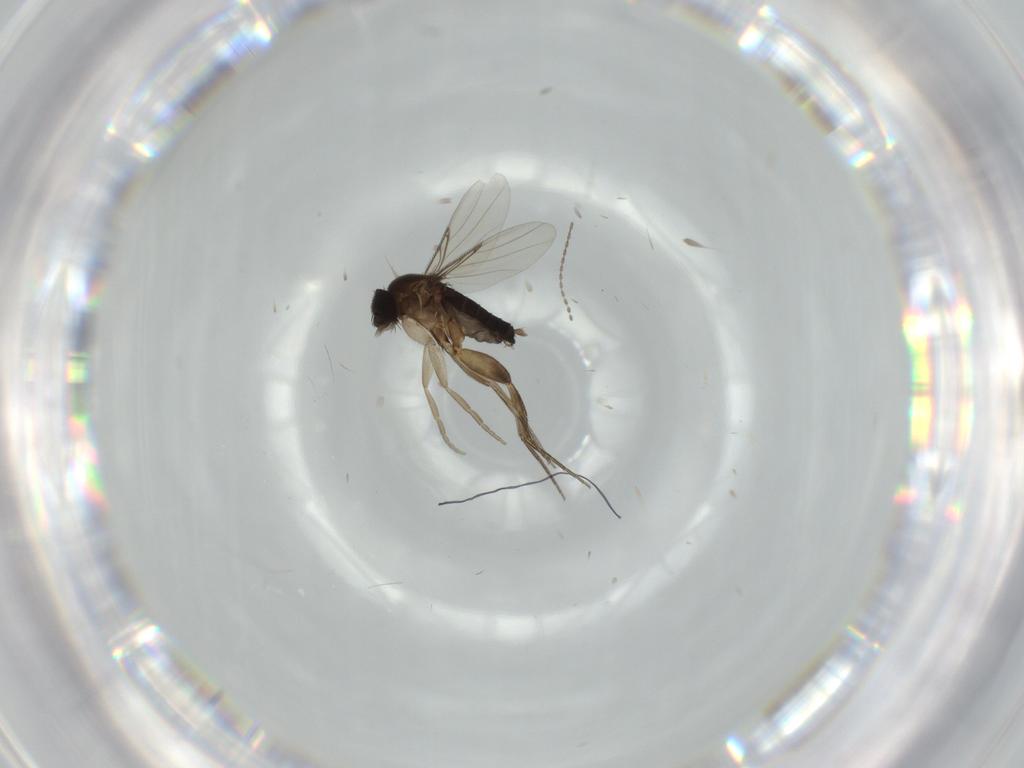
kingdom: Animalia
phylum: Arthropoda
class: Insecta
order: Diptera
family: Cecidomyiidae
